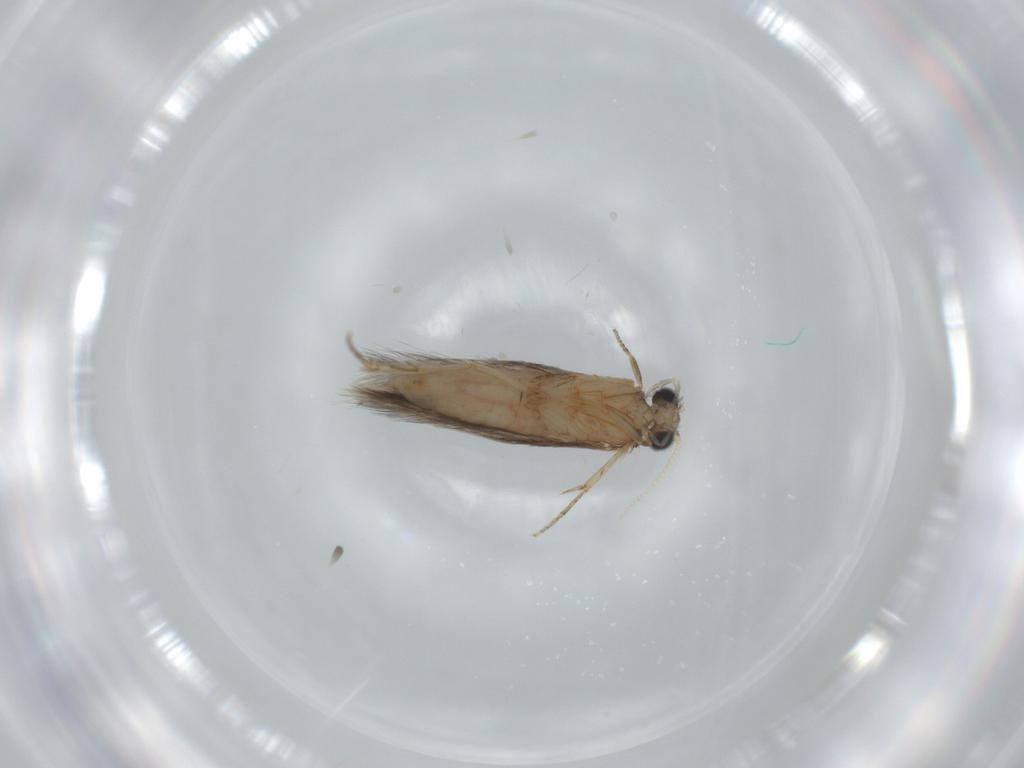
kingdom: Animalia
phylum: Arthropoda
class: Insecta
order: Trichoptera
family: Hydroptilidae
